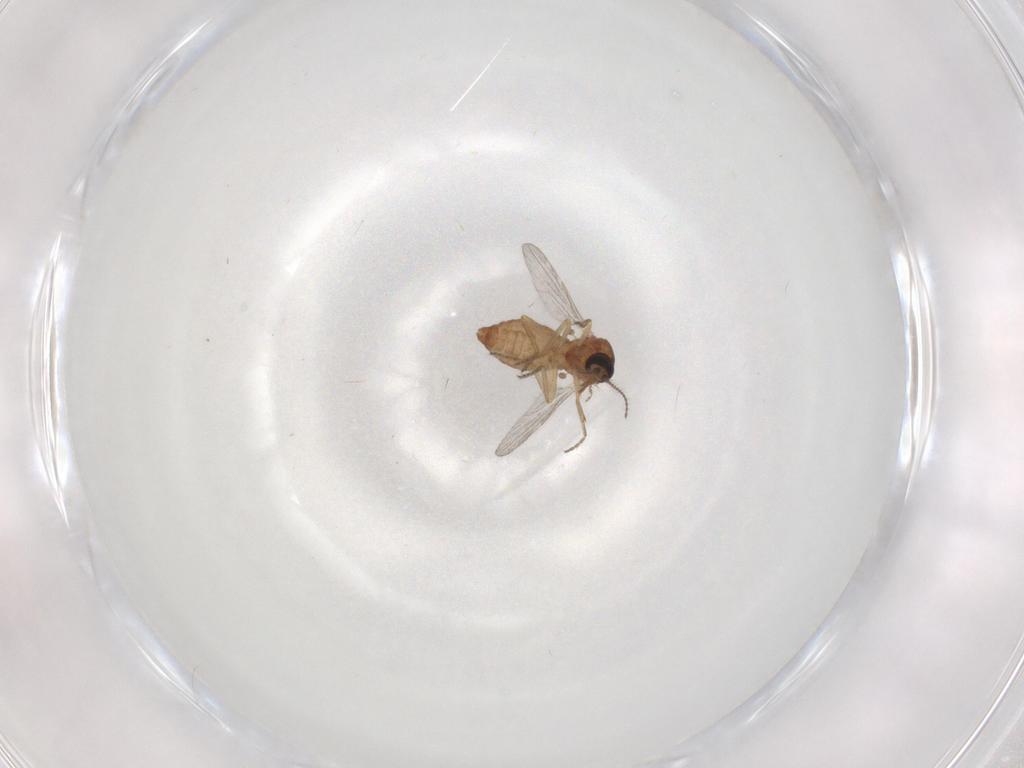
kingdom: Animalia
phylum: Arthropoda
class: Insecta
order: Diptera
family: Ceratopogonidae
